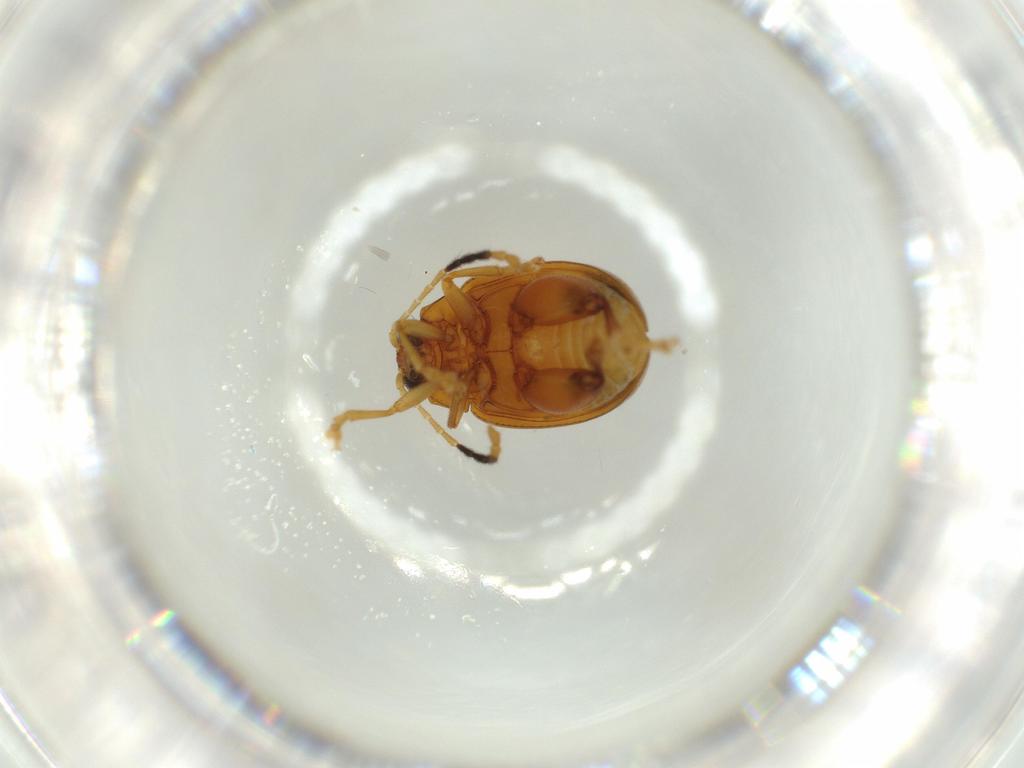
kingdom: Animalia
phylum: Arthropoda
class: Insecta
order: Coleoptera
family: Chrysomelidae
